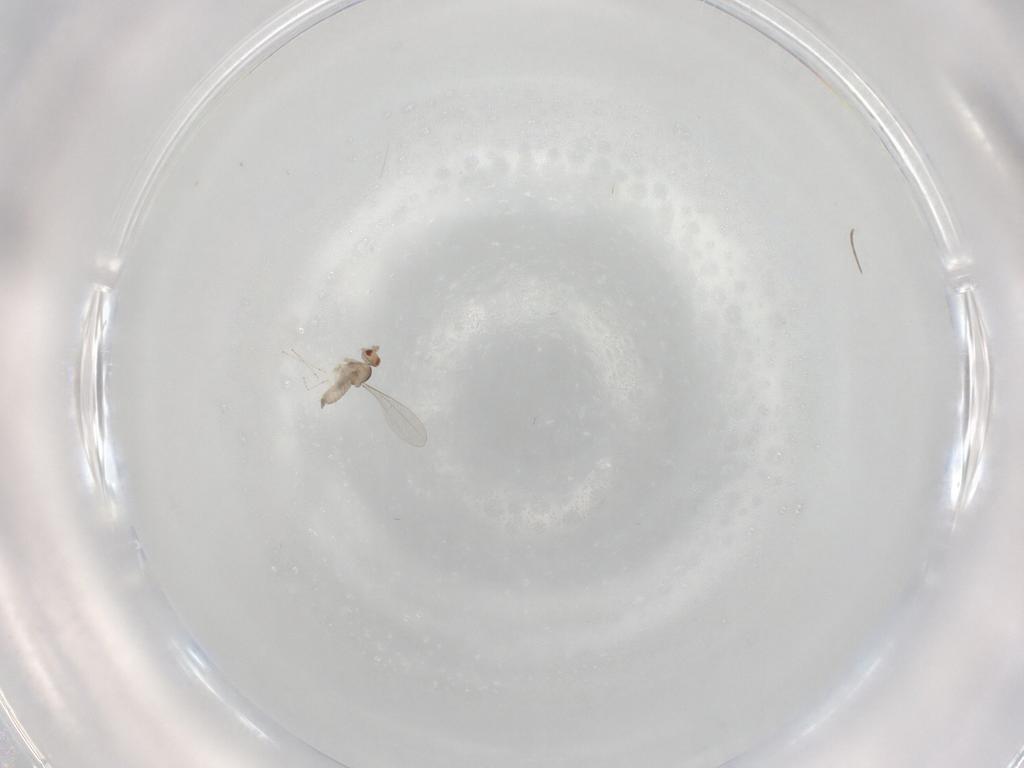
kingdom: Animalia
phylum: Arthropoda
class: Insecta
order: Diptera
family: Cecidomyiidae
